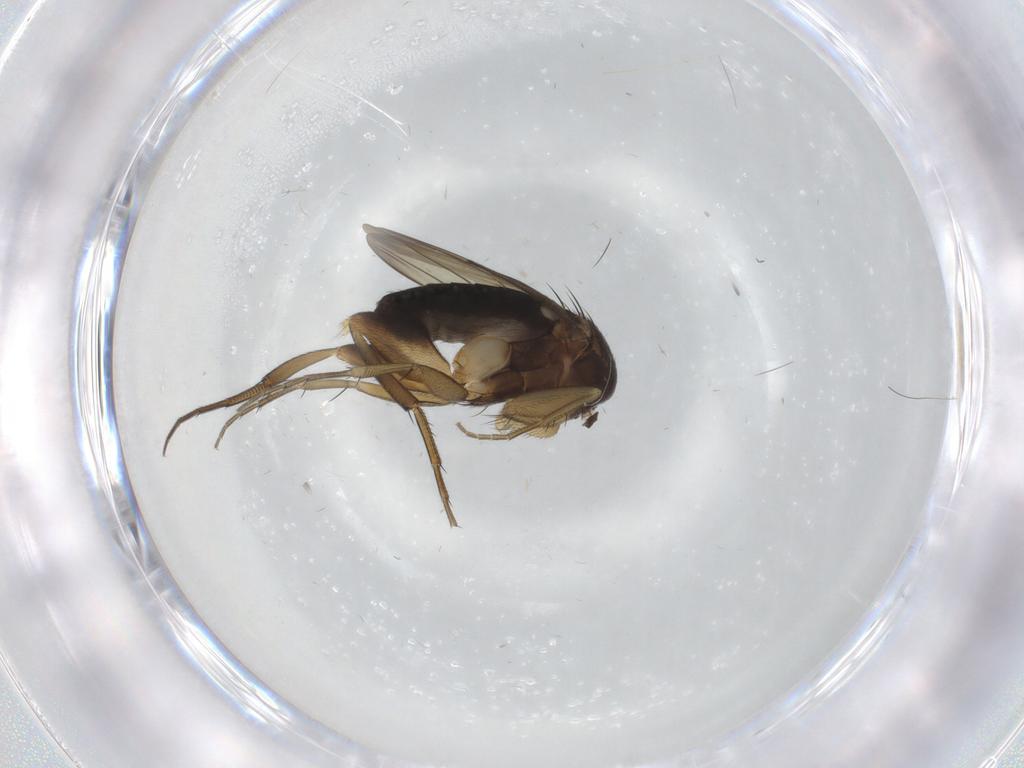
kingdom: Animalia
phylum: Arthropoda
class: Insecta
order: Diptera
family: Phoridae
